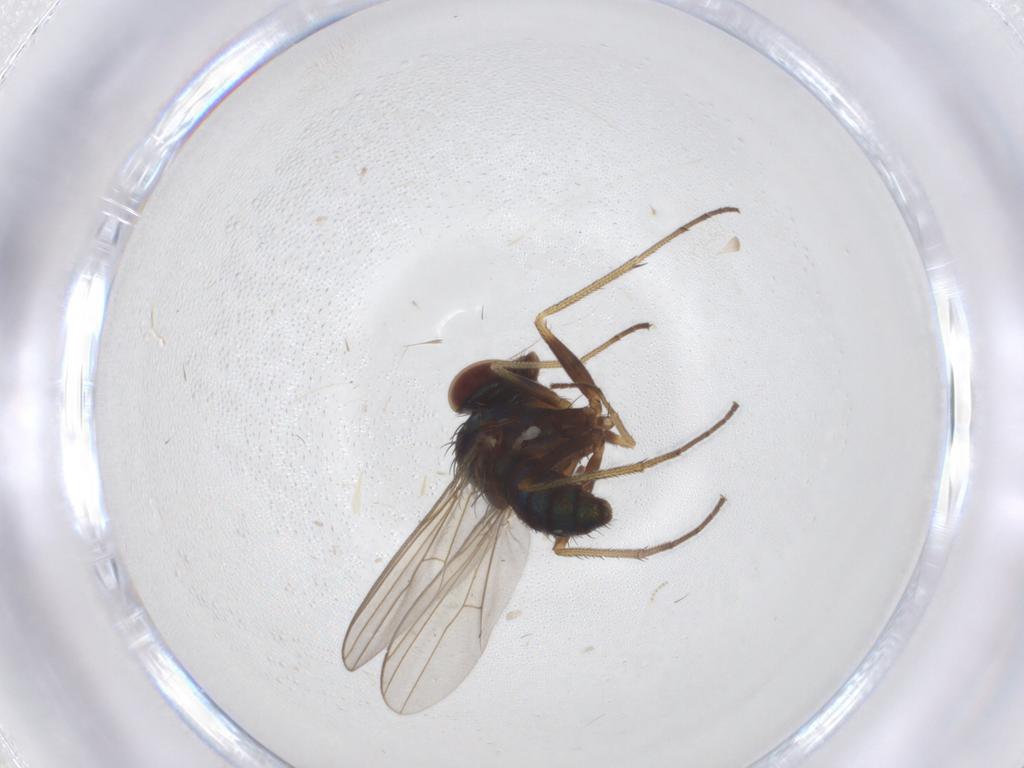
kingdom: Animalia
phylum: Arthropoda
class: Insecta
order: Diptera
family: Dolichopodidae
